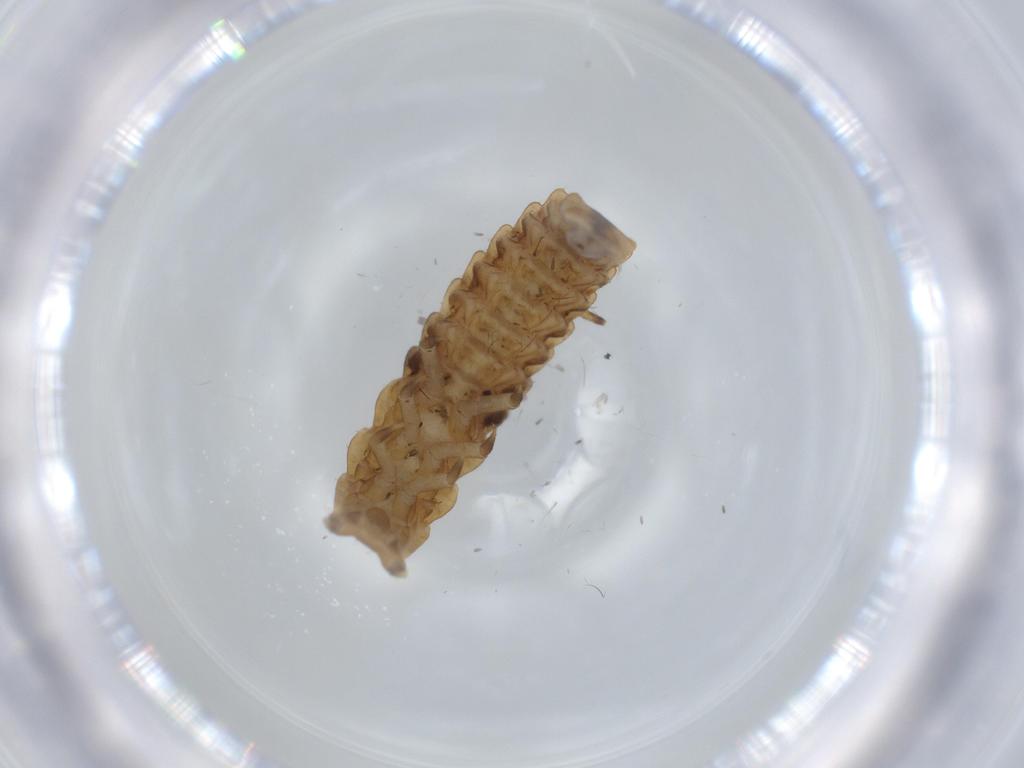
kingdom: Animalia
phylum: Arthropoda
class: Insecta
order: Coleoptera
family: Lycidae
